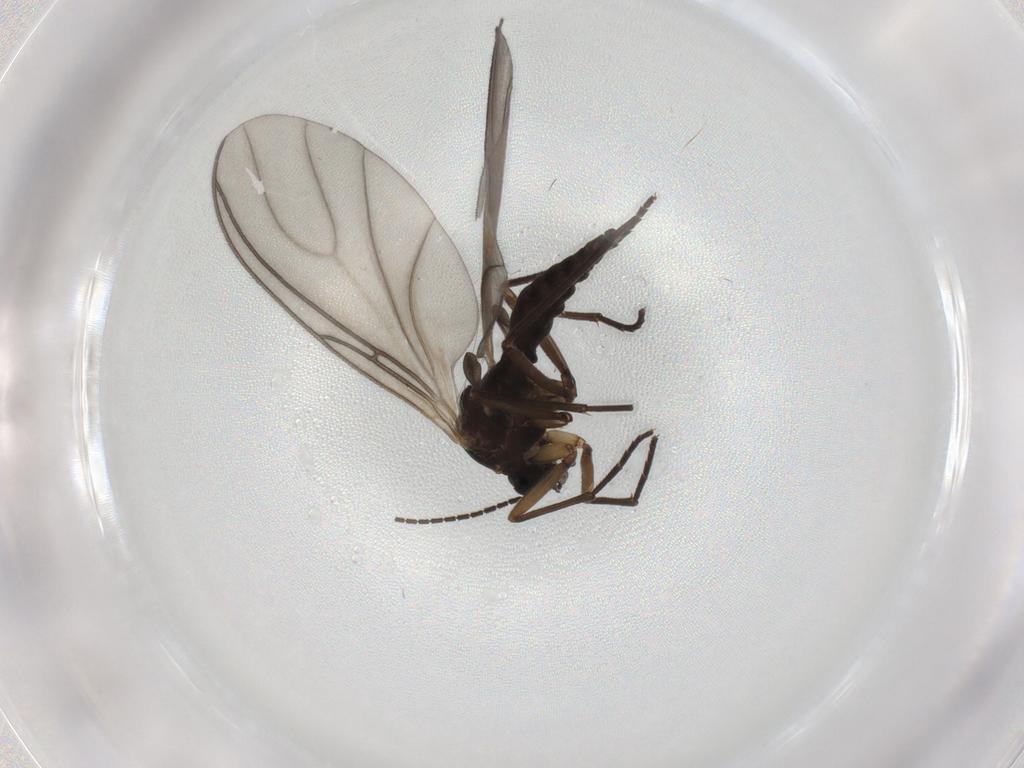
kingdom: Animalia
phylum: Arthropoda
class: Insecta
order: Diptera
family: Sciaridae
